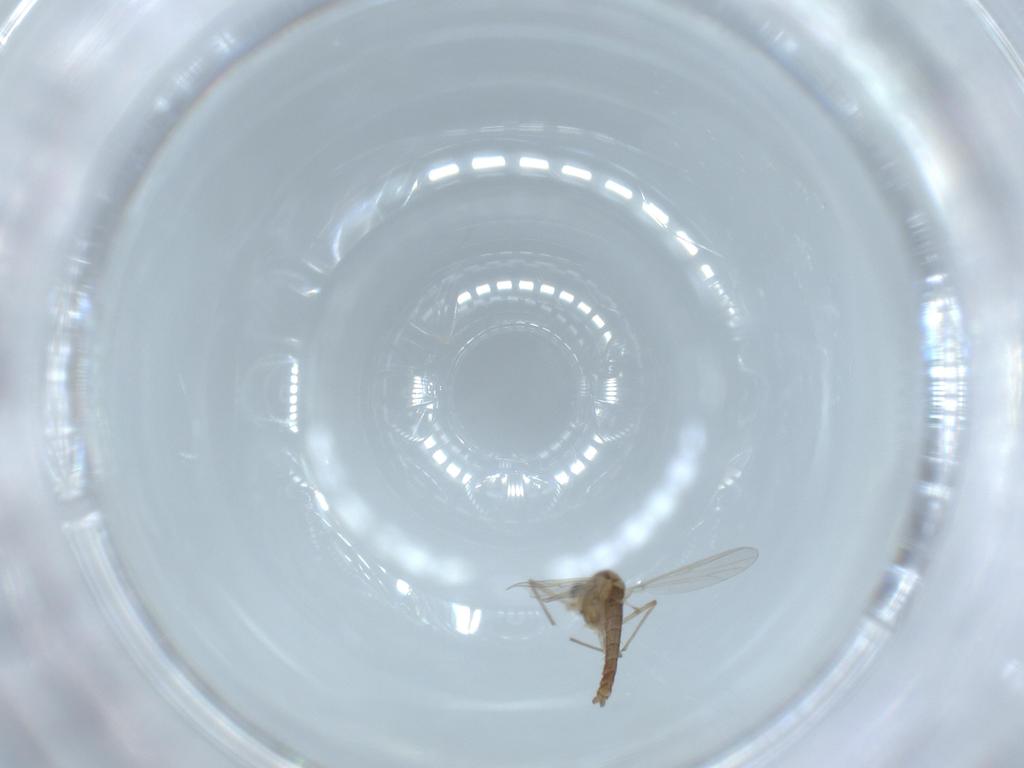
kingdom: Animalia
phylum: Arthropoda
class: Insecta
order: Diptera
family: Chironomidae
